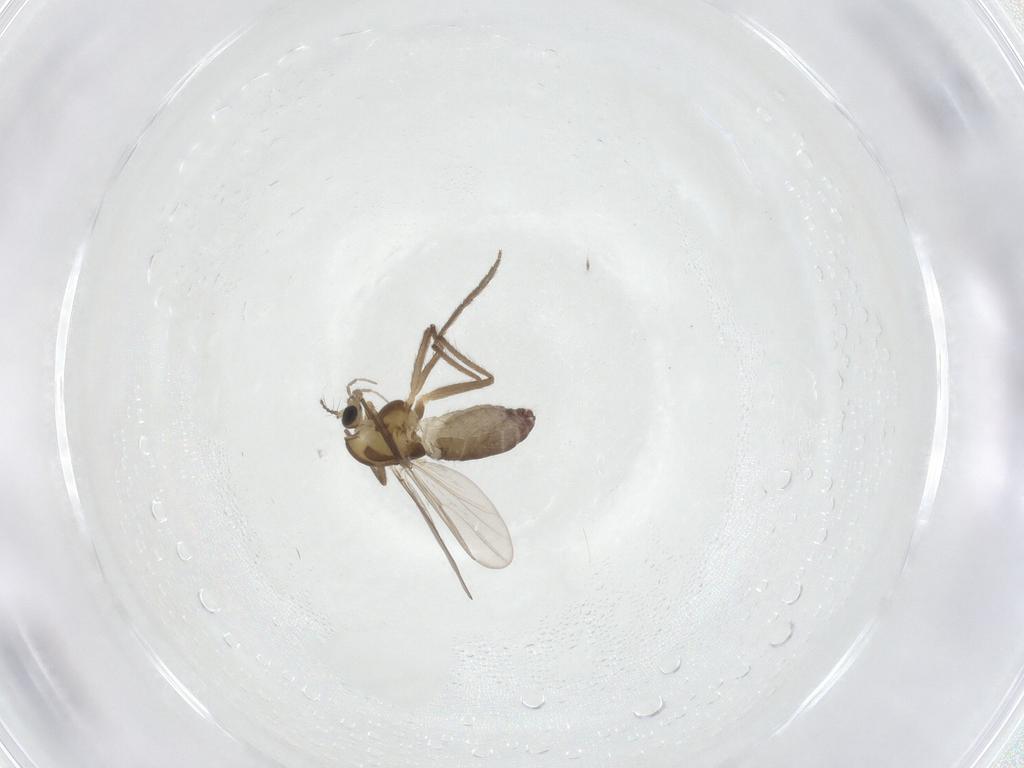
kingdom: Animalia
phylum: Arthropoda
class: Insecta
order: Diptera
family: Chironomidae
